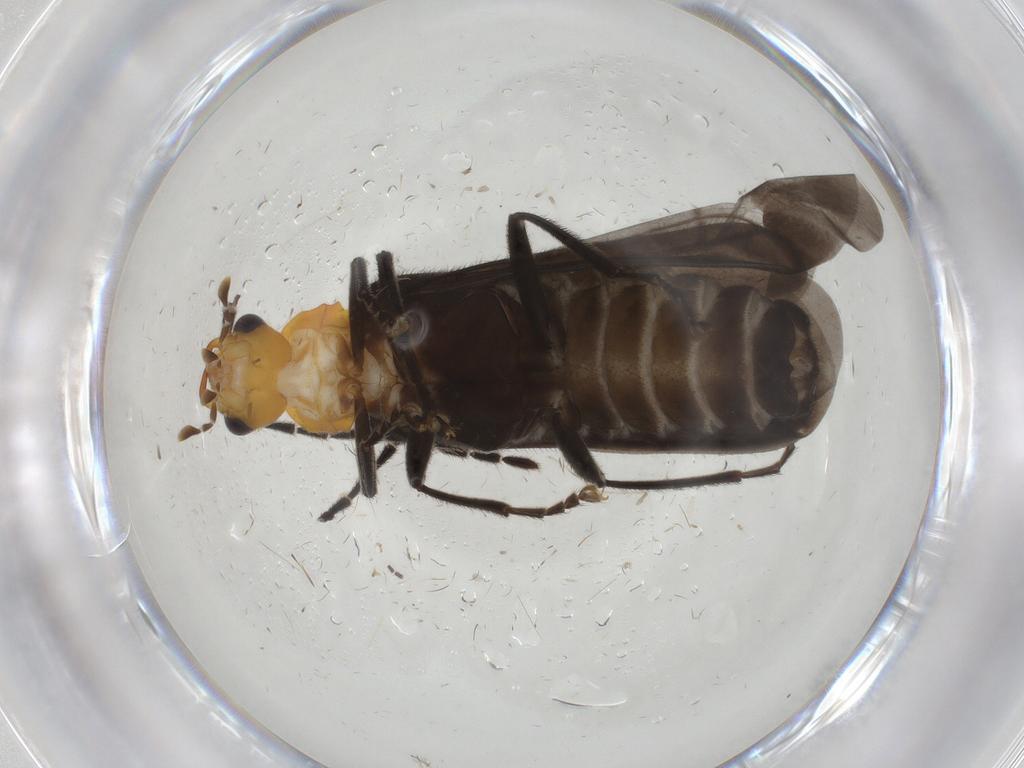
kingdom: Animalia
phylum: Arthropoda
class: Insecta
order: Coleoptera
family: Cantharidae
